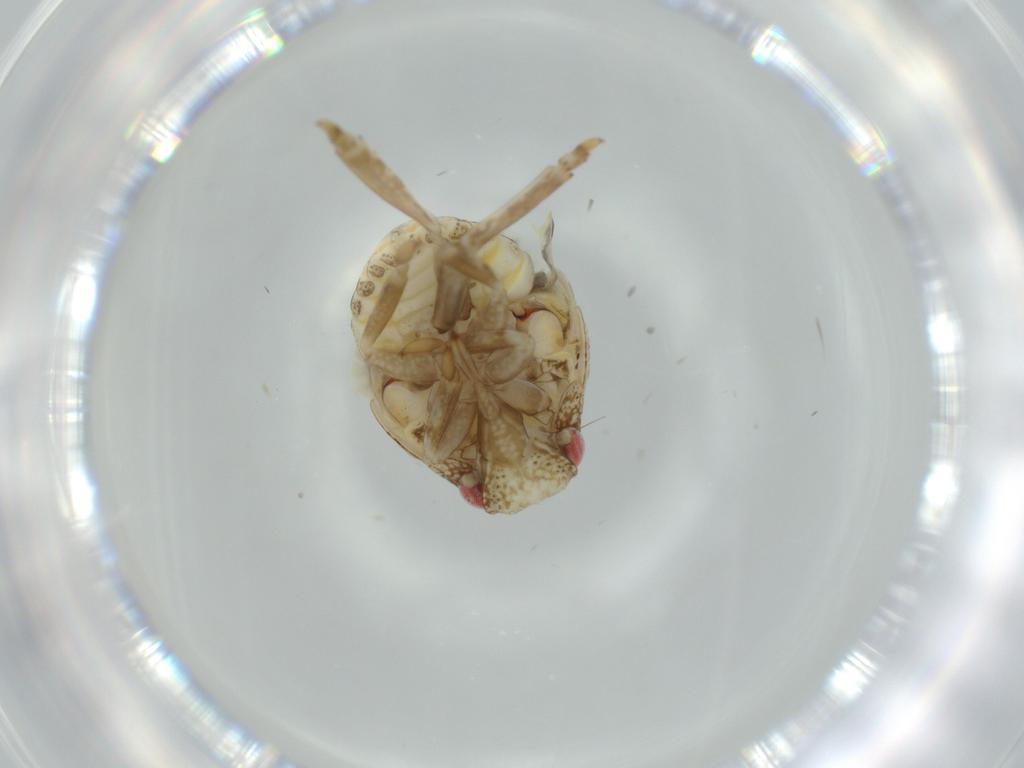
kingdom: Animalia
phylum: Arthropoda
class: Insecta
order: Hemiptera
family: Acanaloniidae
